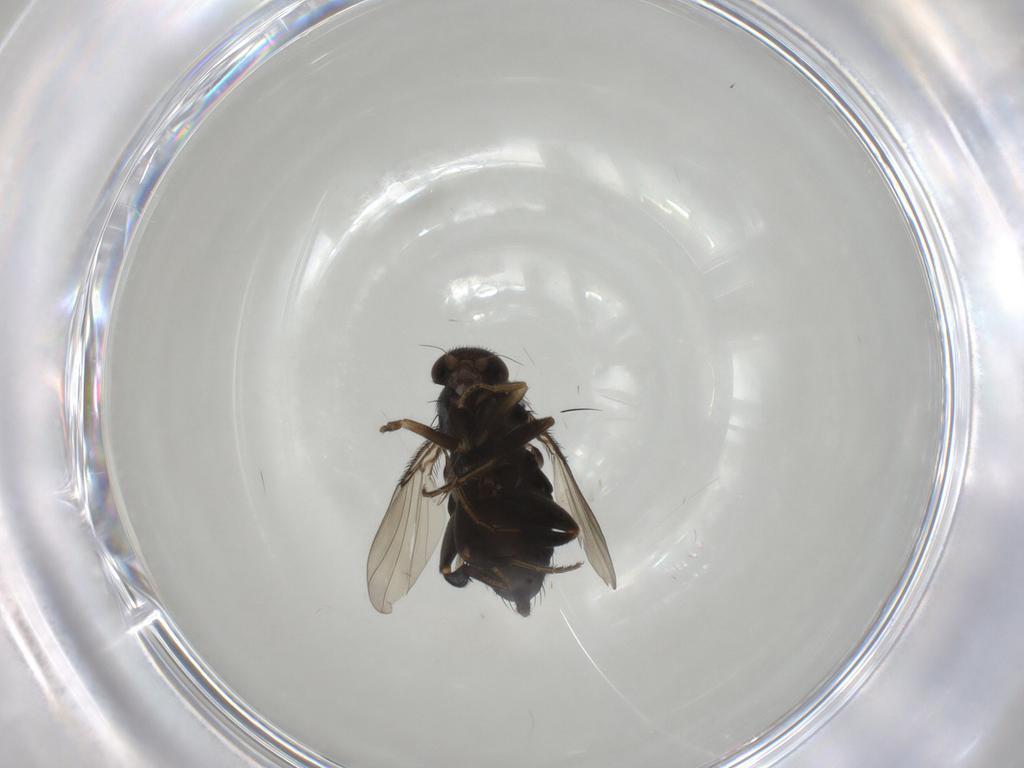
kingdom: Animalia
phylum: Arthropoda
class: Insecta
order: Diptera
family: Phoridae
